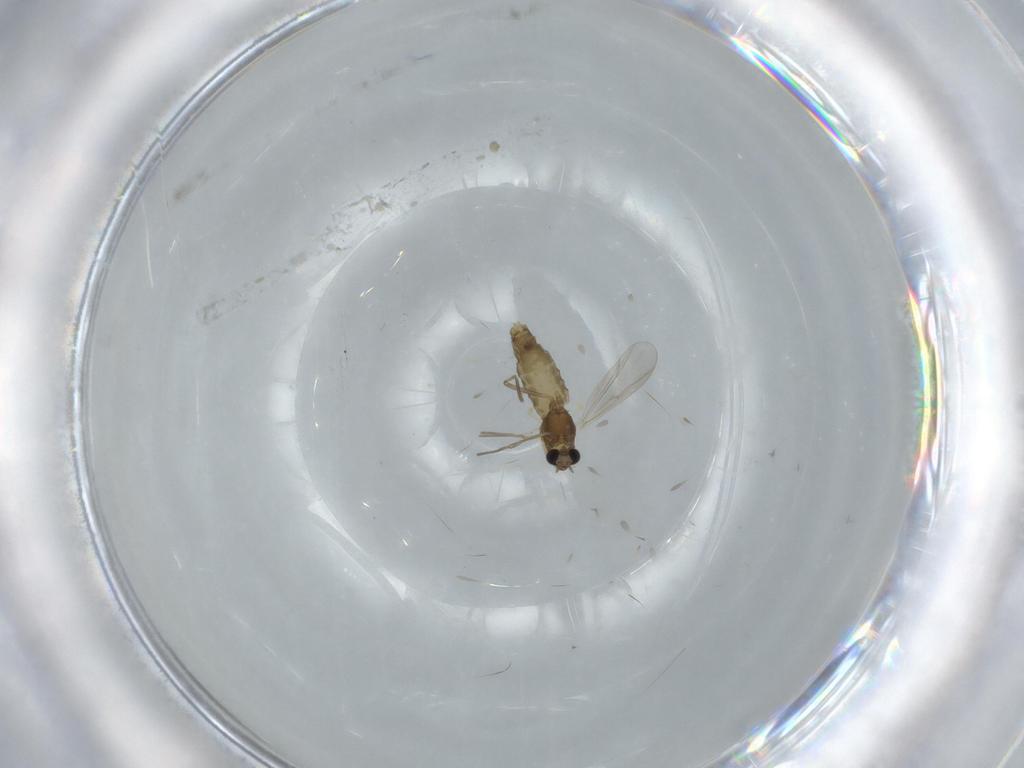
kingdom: Animalia
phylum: Arthropoda
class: Insecta
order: Diptera
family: Chironomidae
